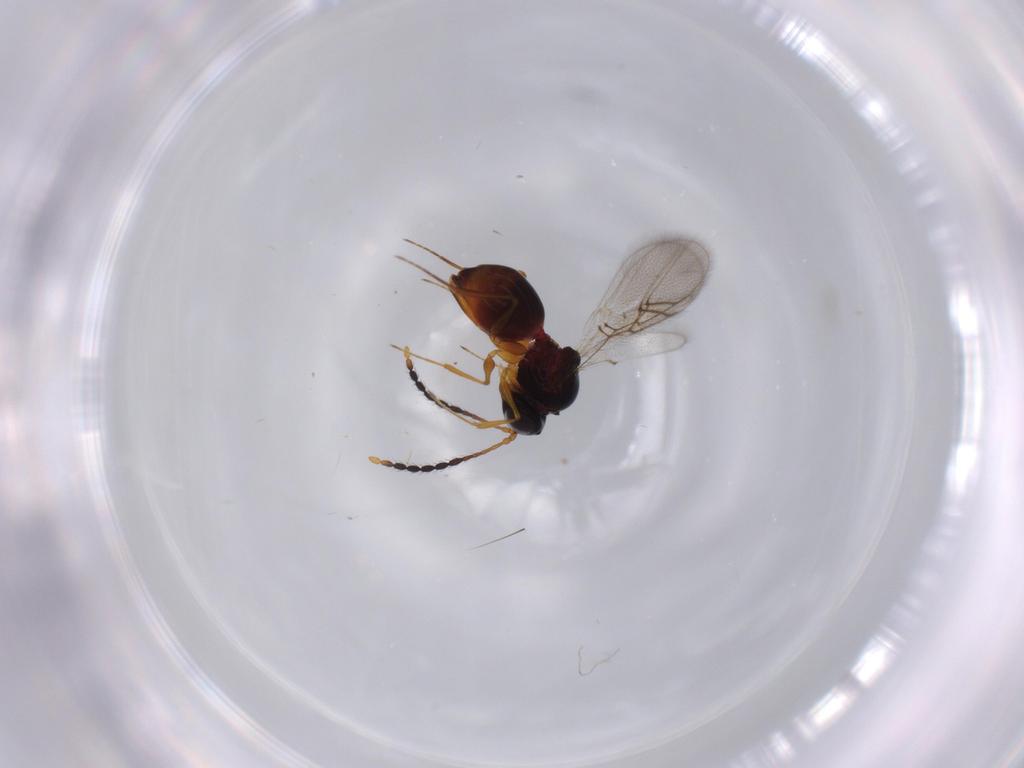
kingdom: Animalia
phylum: Arthropoda
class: Insecta
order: Hymenoptera
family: Figitidae
